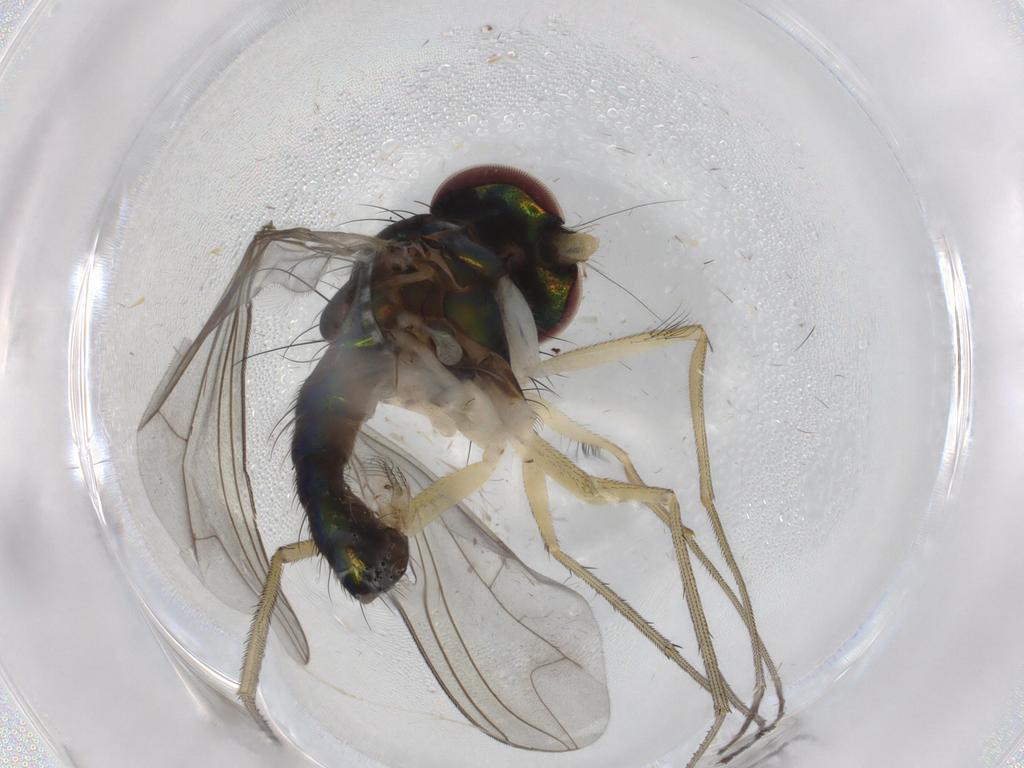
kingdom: Animalia
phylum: Arthropoda
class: Insecta
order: Diptera
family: Dolichopodidae
